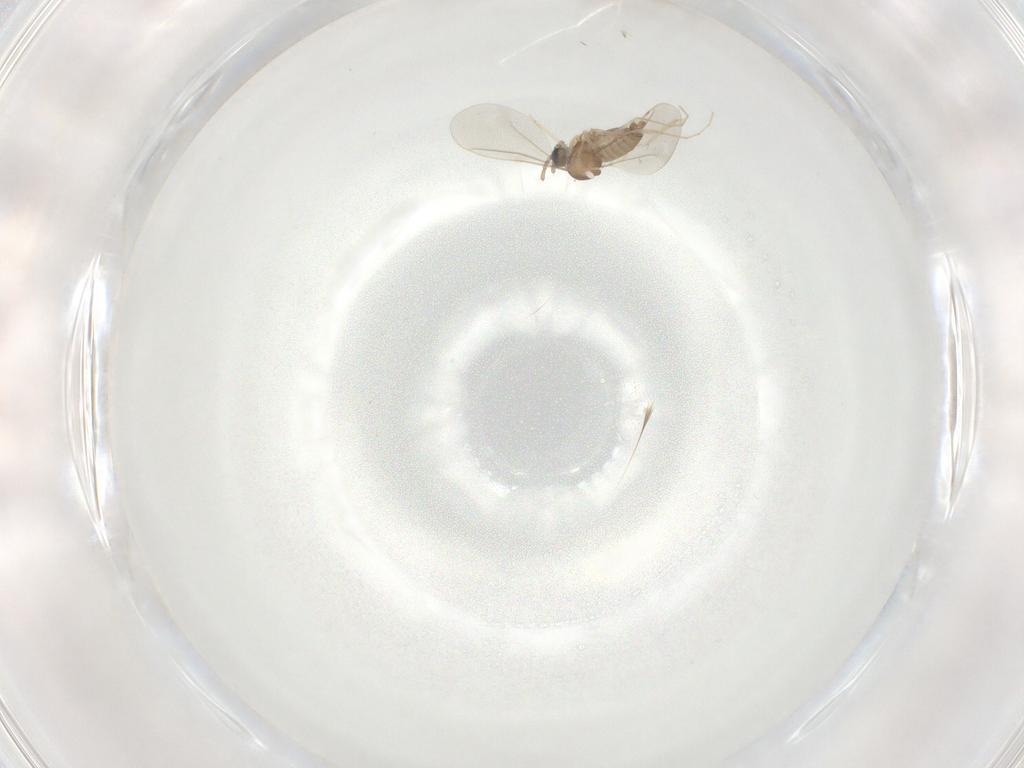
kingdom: Animalia
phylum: Arthropoda
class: Insecta
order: Diptera
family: Cecidomyiidae
